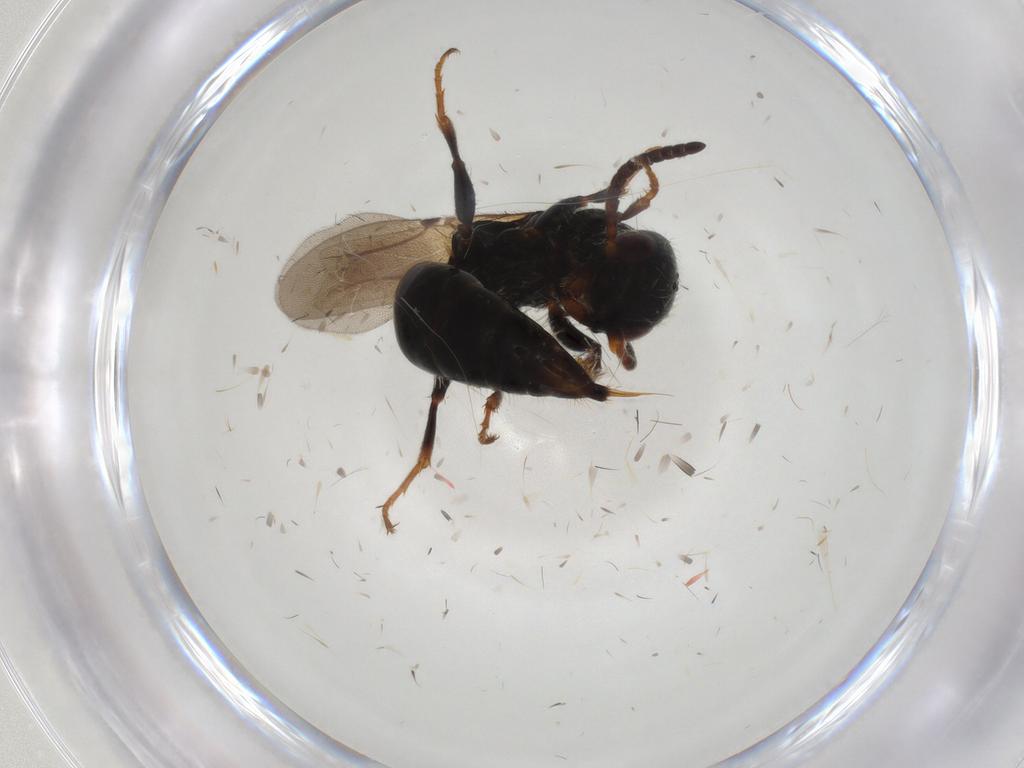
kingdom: Animalia
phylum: Arthropoda
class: Insecta
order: Hymenoptera
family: Bethylidae
